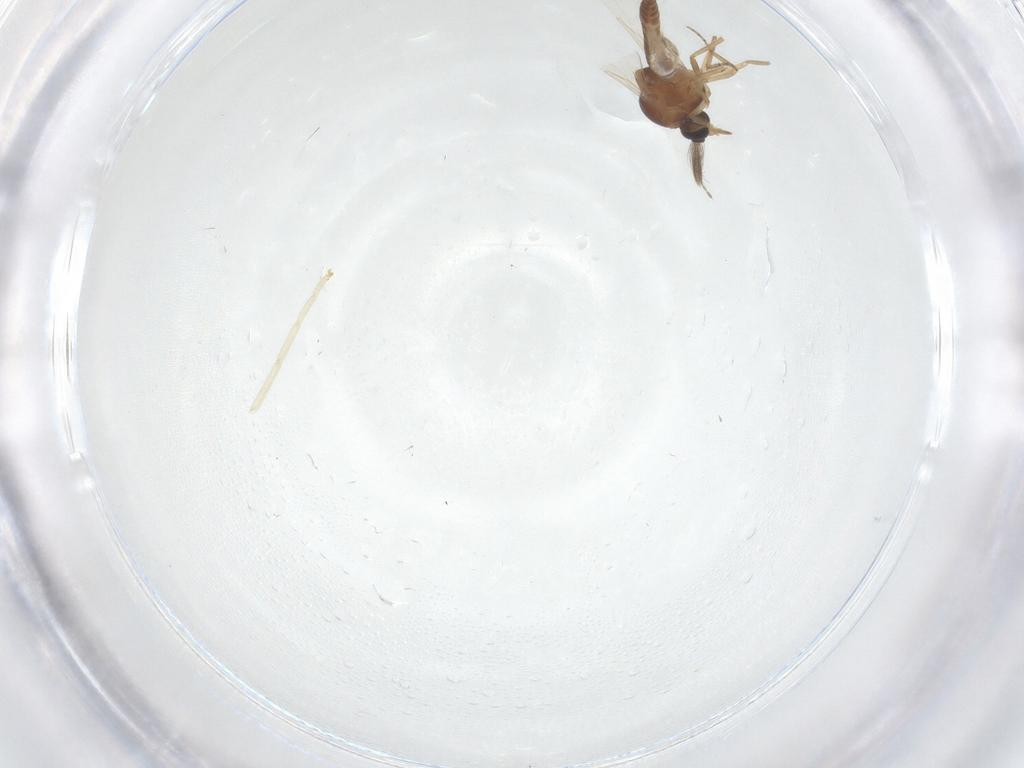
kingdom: Animalia
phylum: Arthropoda
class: Insecta
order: Diptera
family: Ceratopogonidae
